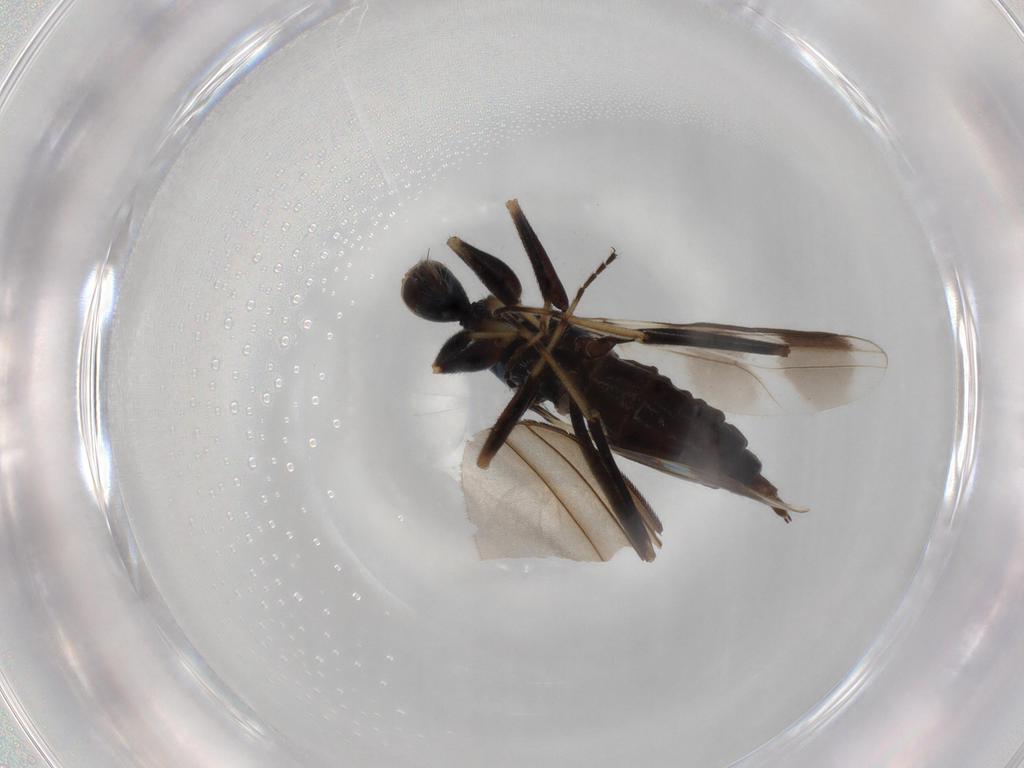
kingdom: Animalia
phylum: Arthropoda
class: Insecta
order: Diptera
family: Hybotidae
